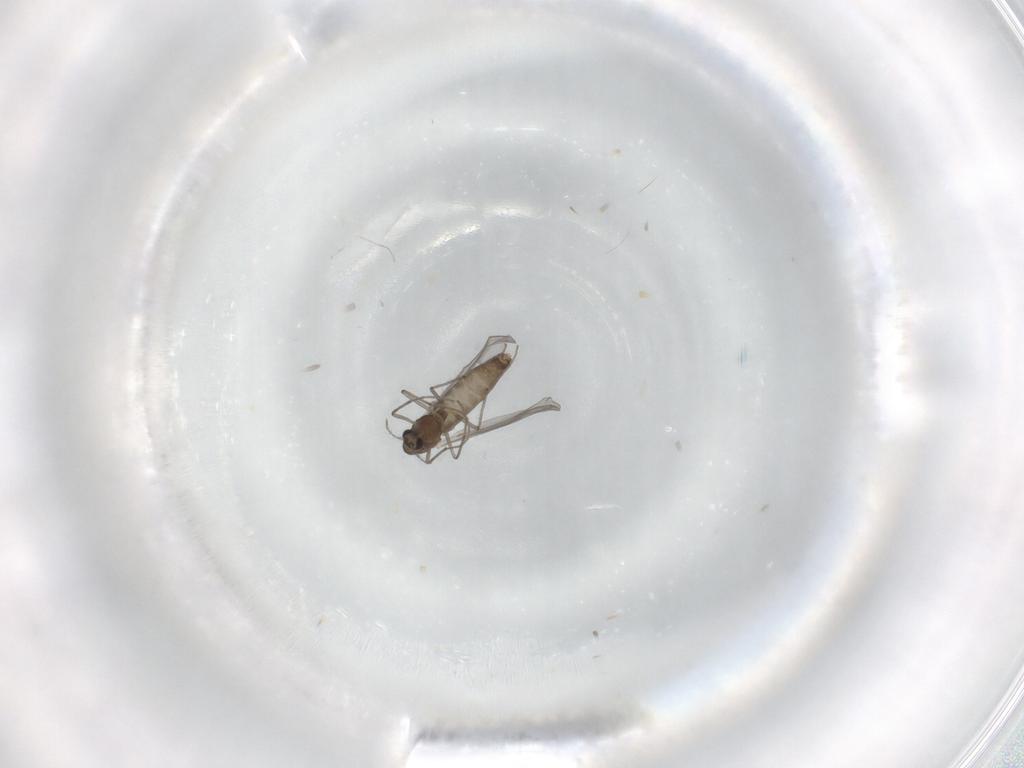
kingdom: Animalia
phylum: Arthropoda
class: Insecta
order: Diptera
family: Chironomidae
